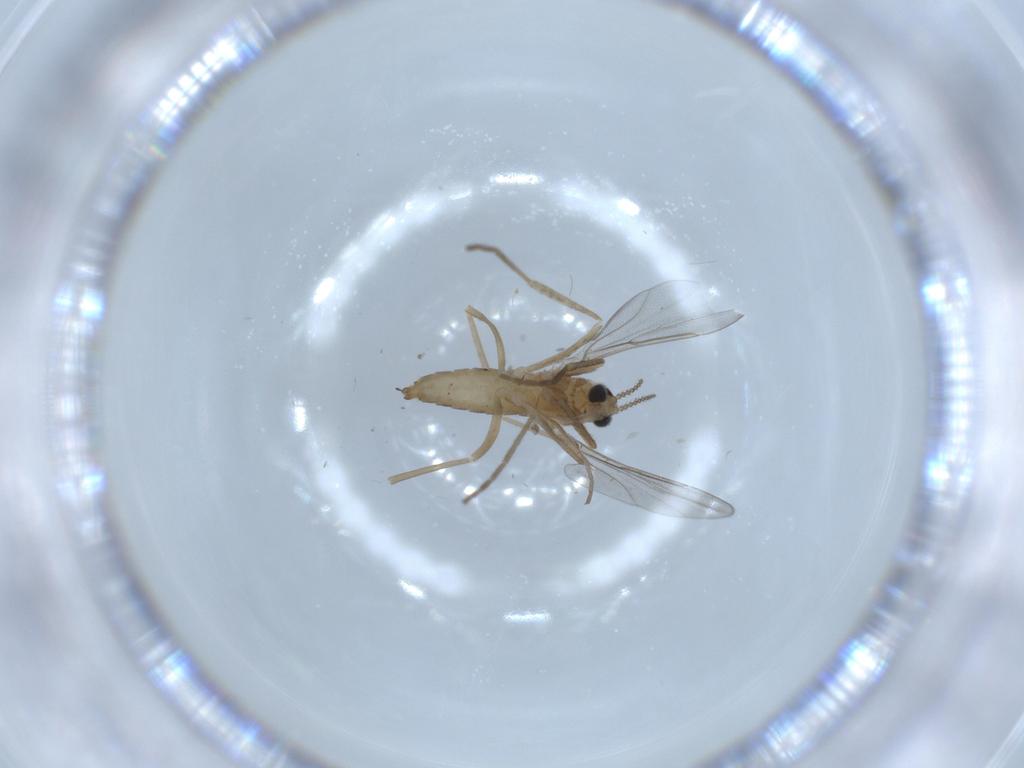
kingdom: Animalia
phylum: Arthropoda
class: Insecta
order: Diptera
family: Cecidomyiidae
